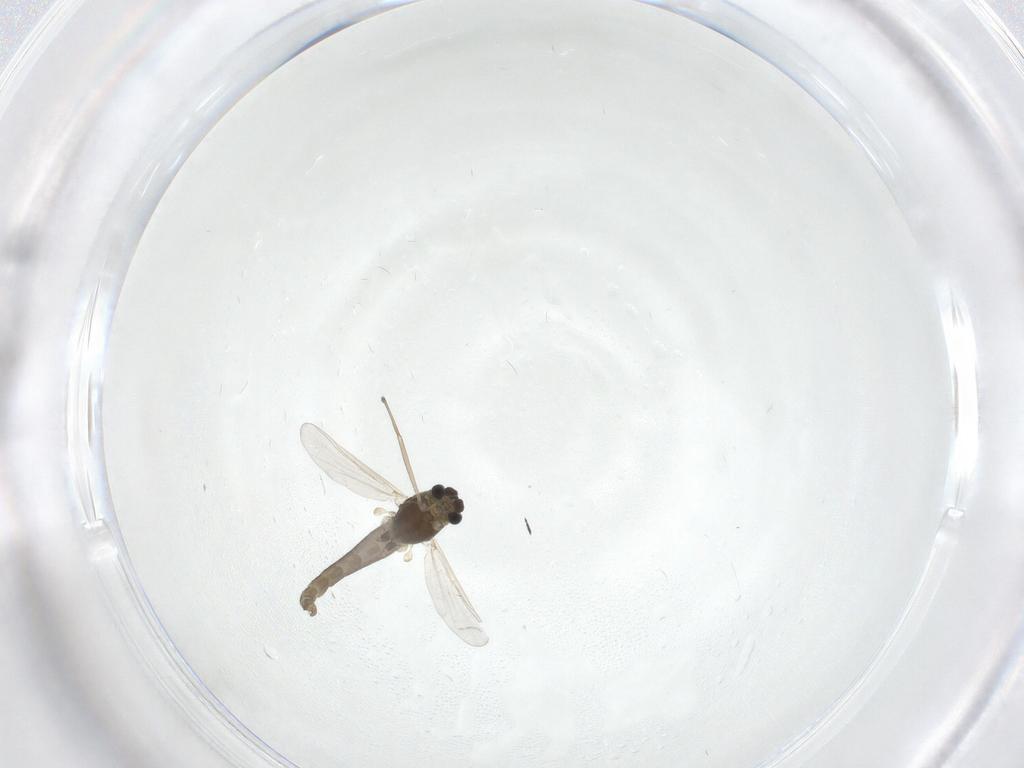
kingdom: Animalia
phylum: Arthropoda
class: Insecta
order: Diptera
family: Chironomidae
